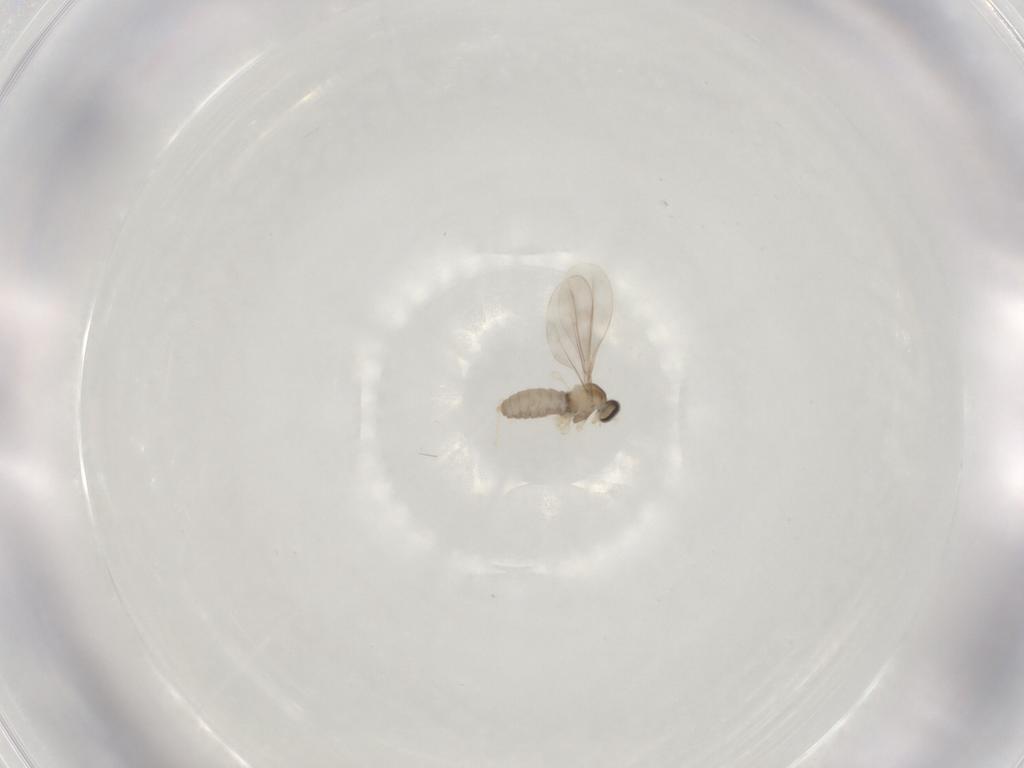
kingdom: Animalia
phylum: Arthropoda
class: Insecta
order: Diptera
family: Cecidomyiidae
